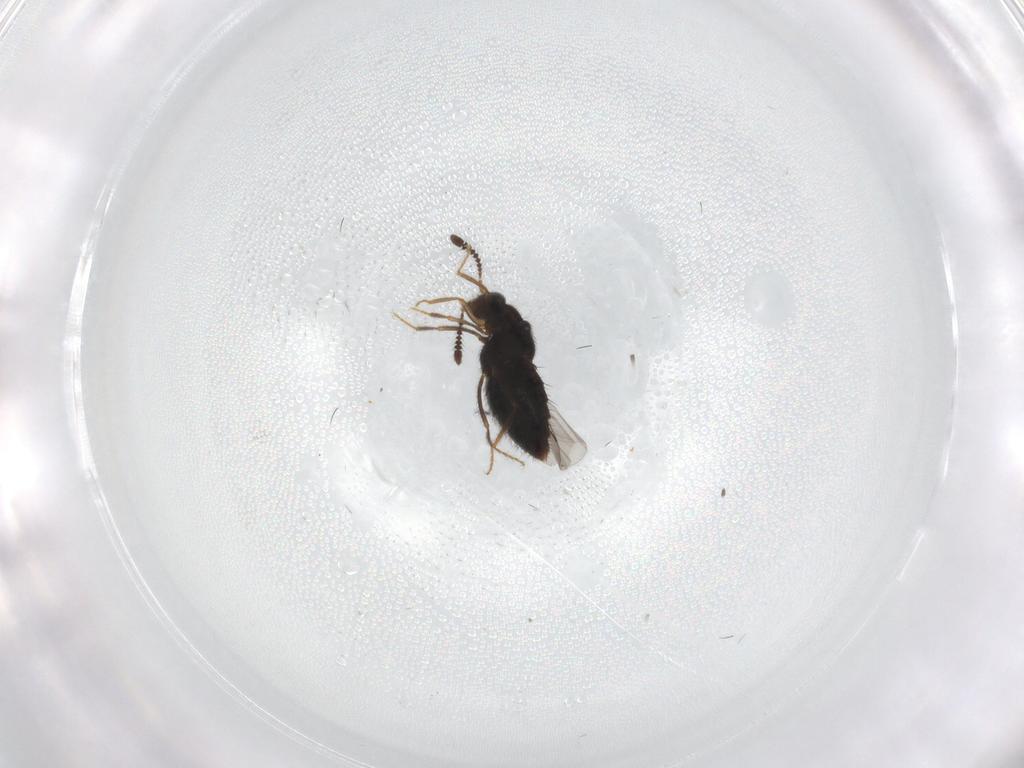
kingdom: Animalia
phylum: Arthropoda
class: Insecta
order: Coleoptera
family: Staphylinidae
